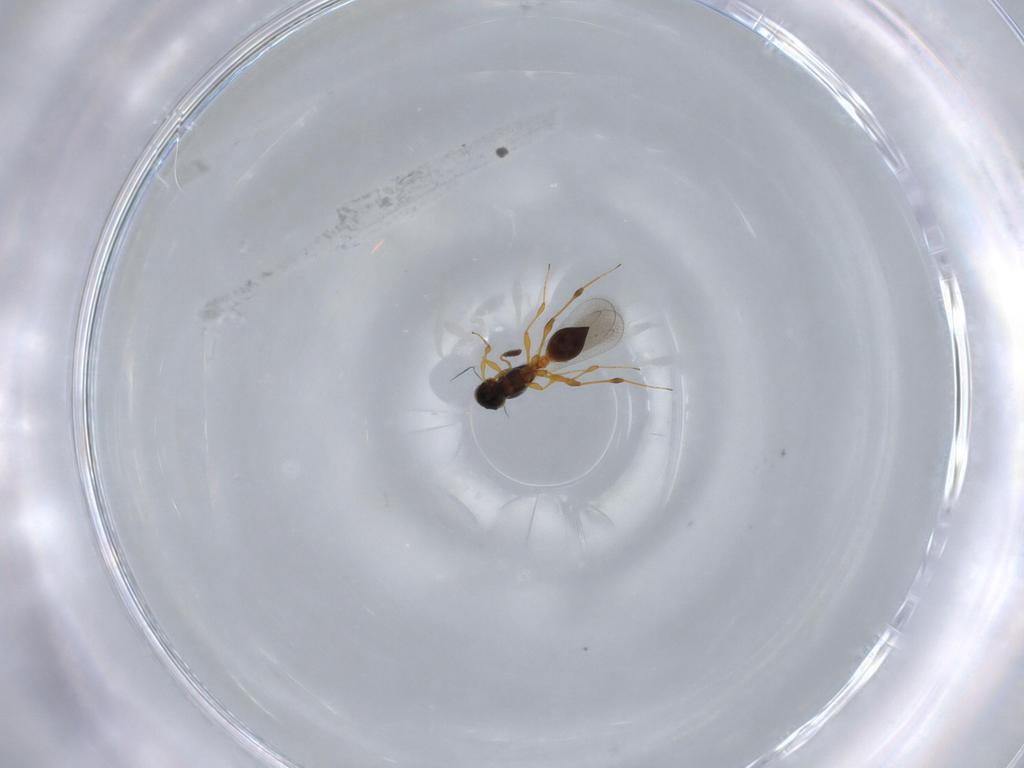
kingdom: Animalia
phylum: Arthropoda
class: Insecta
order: Hymenoptera
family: Platygastridae
